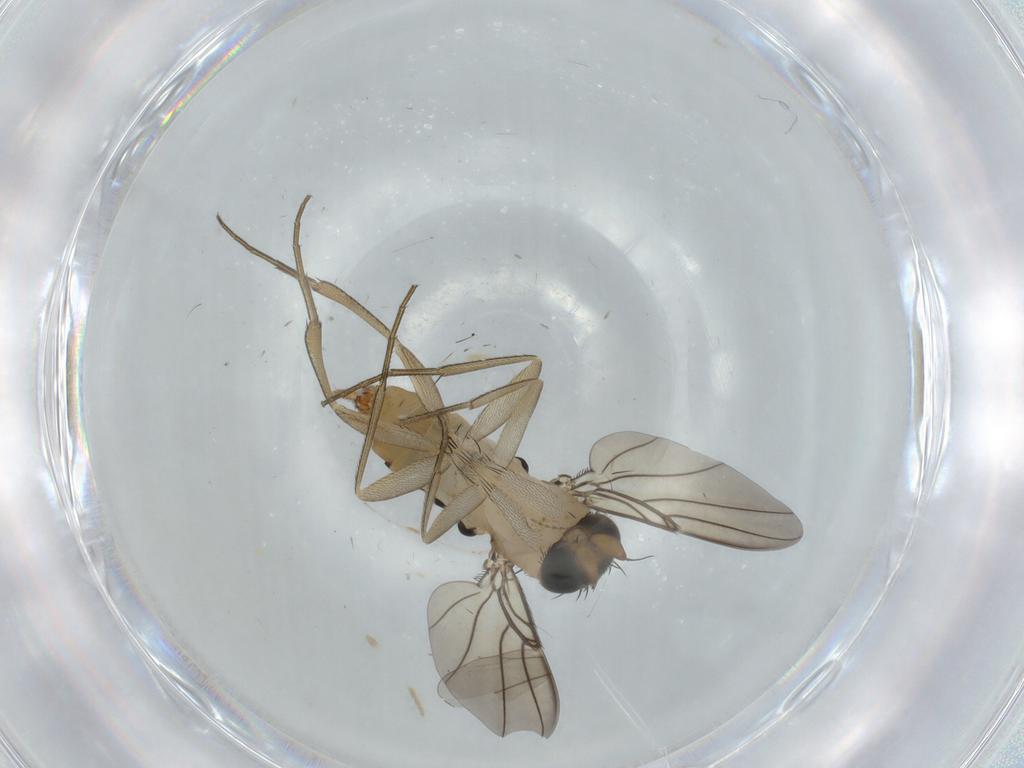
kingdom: Animalia
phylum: Arthropoda
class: Insecta
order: Diptera
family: Phoridae
